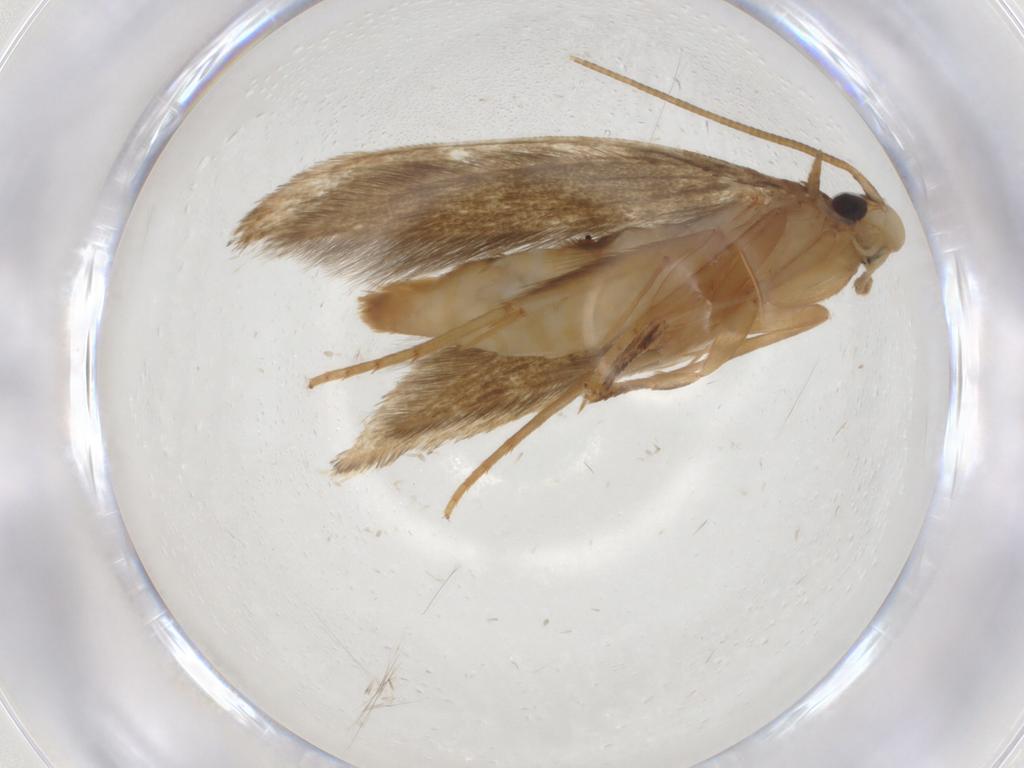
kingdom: Animalia
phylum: Arthropoda
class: Insecta
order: Lepidoptera
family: Tineidae
